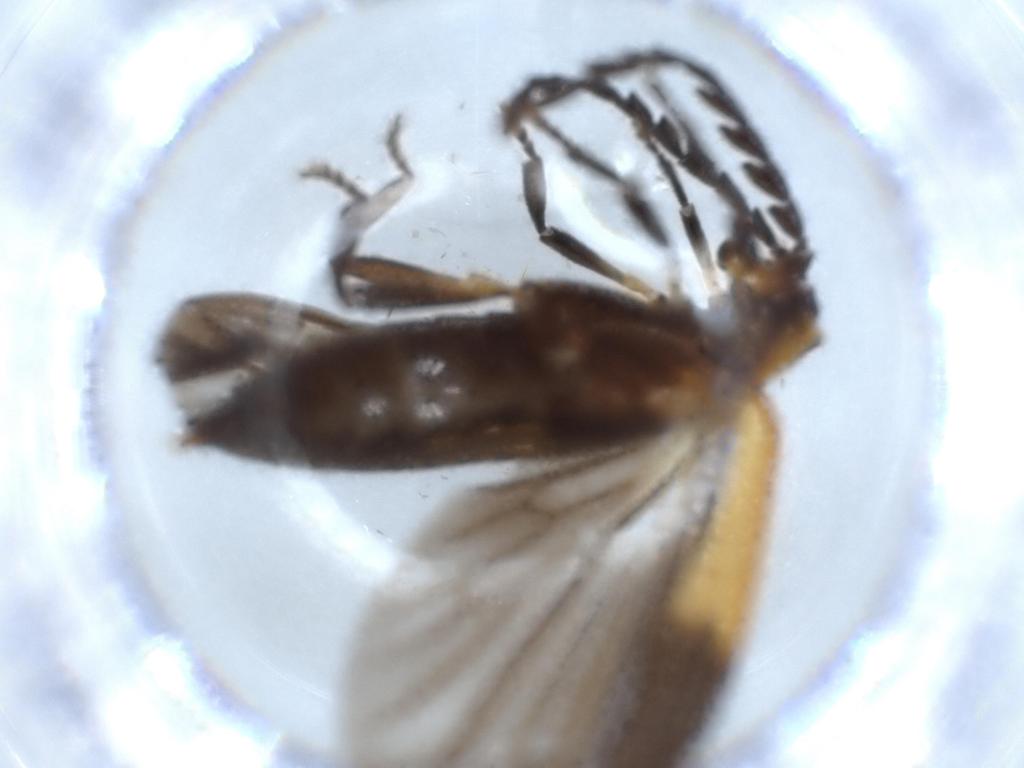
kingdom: Animalia
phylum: Arthropoda
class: Insecta
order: Coleoptera
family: Lycidae
